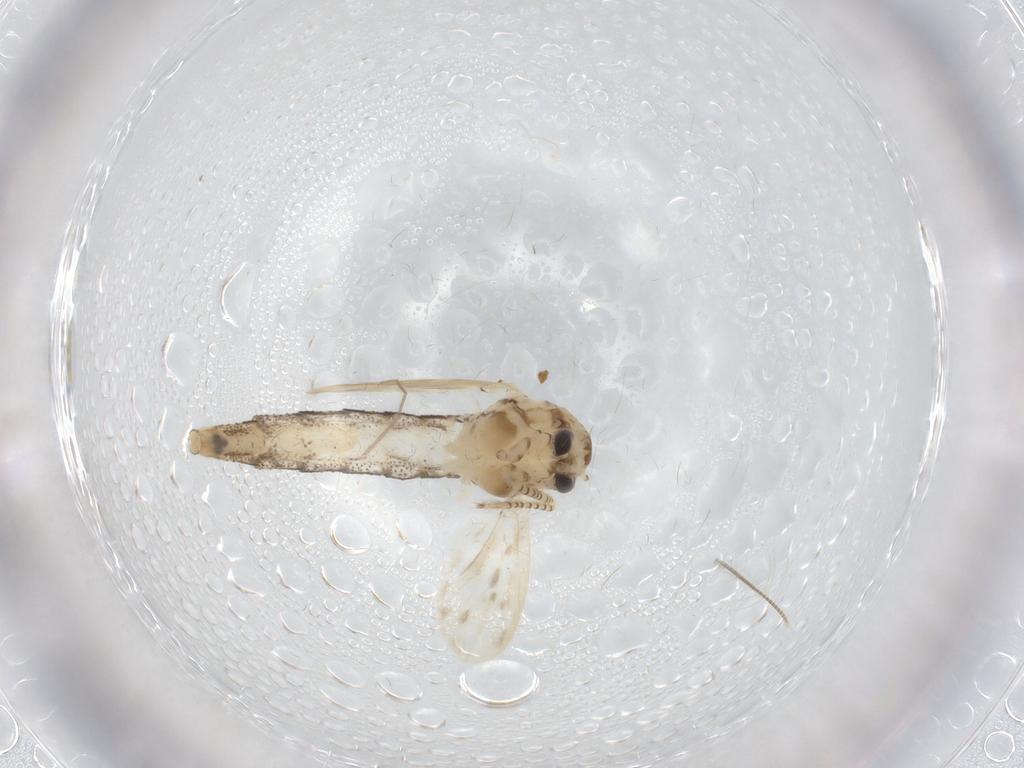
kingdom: Animalia
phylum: Arthropoda
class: Insecta
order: Diptera
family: Chaoboridae
